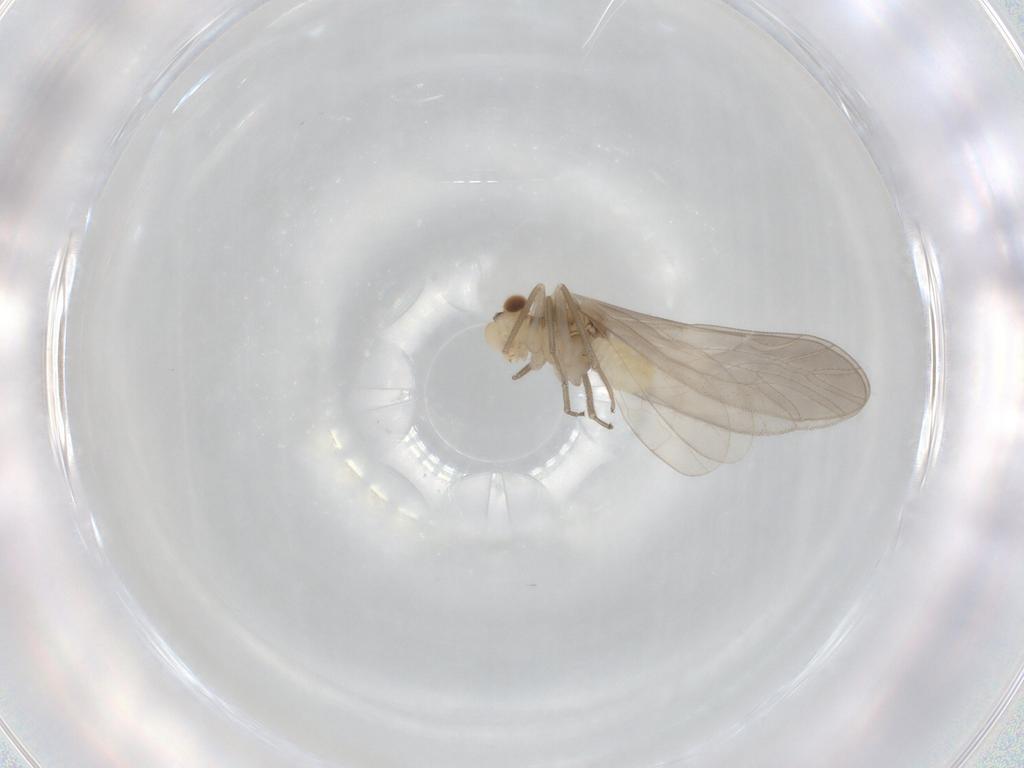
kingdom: Animalia
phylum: Arthropoda
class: Insecta
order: Psocodea
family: Caeciliusidae
